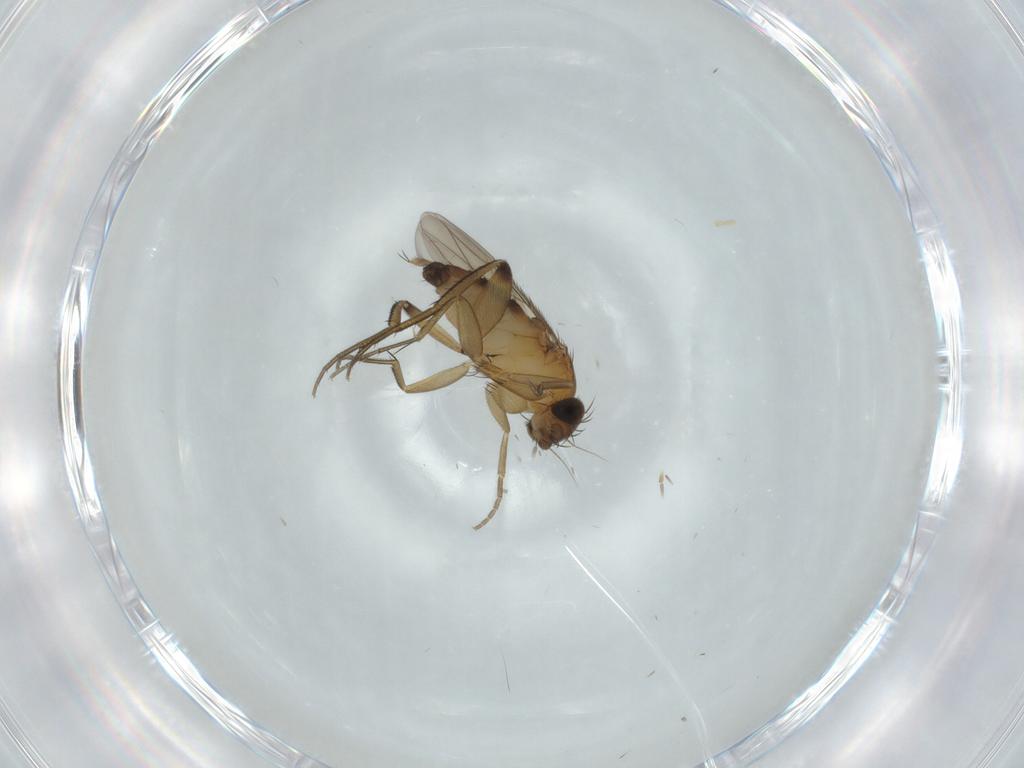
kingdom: Animalia
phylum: Arthropoda
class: Insecta
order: Diptera
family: Phoridae
